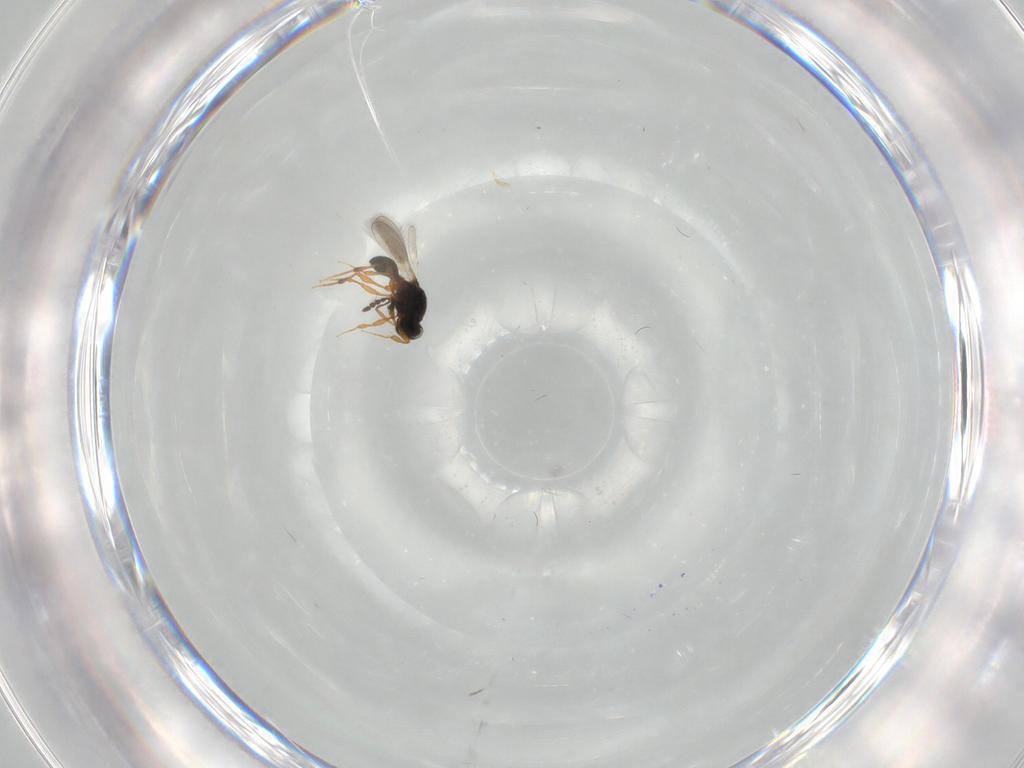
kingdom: Animalia
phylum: Arthropoda
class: Insecta
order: Hymenoptera
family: Platygastridae
